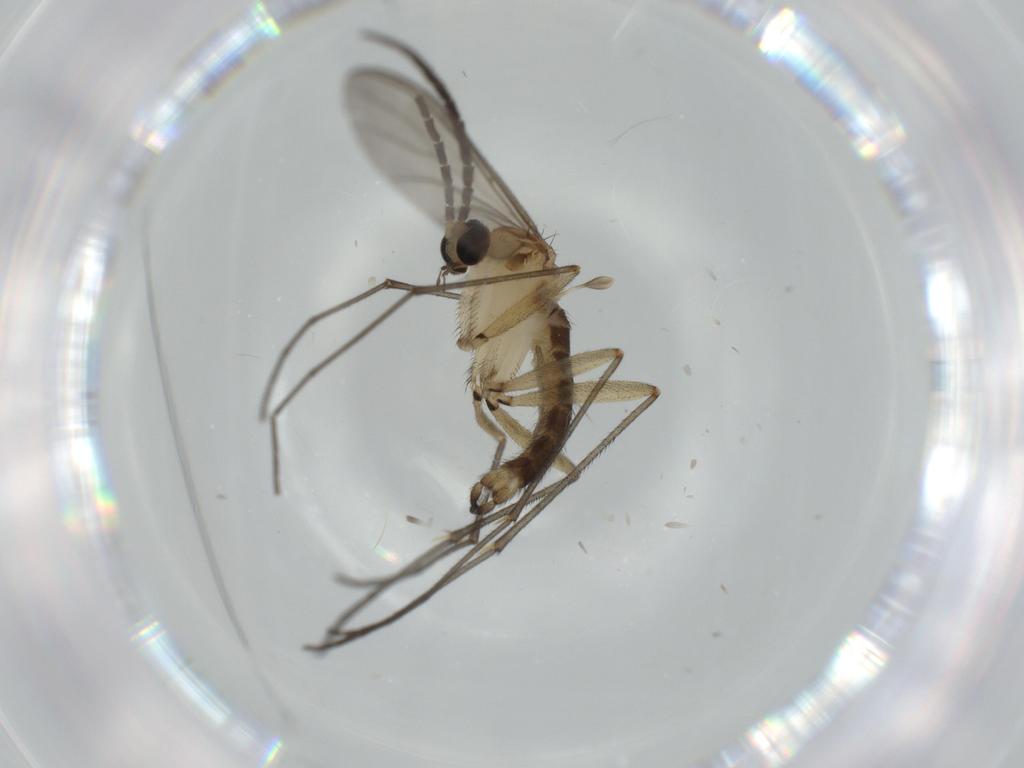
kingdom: Animalia
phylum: Arthropoda
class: Insecta
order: Diptera
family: Sciaridae
